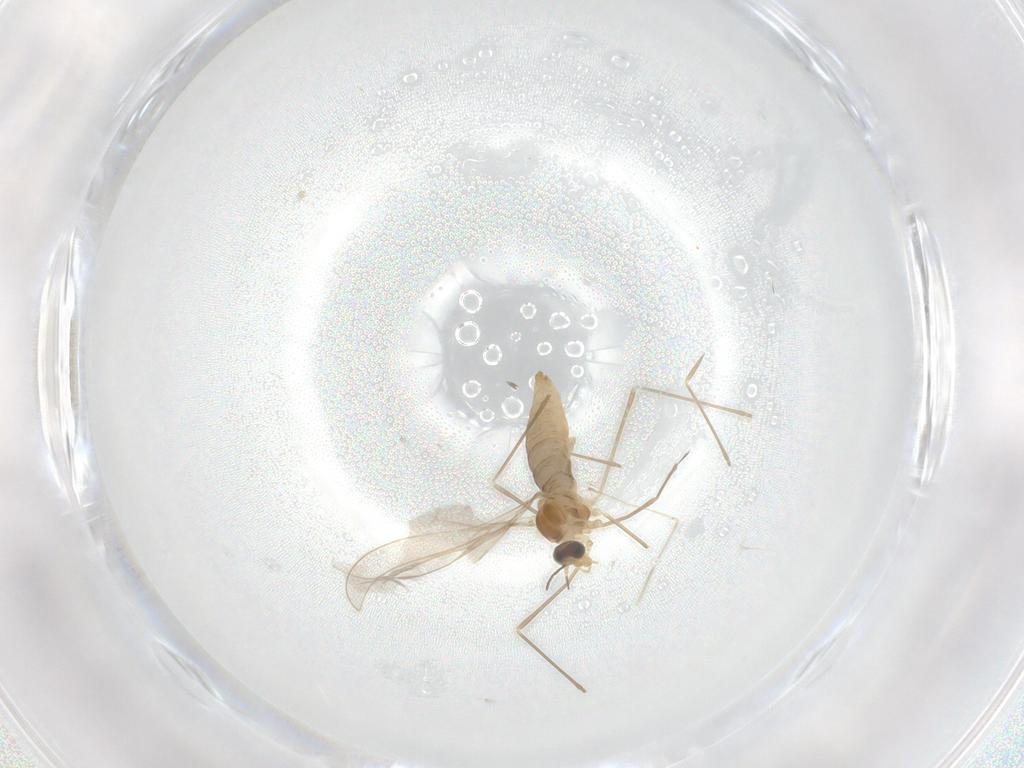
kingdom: Animalia
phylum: Arthropoda
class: Insecta
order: Diptera
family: Cecidomyiidae
